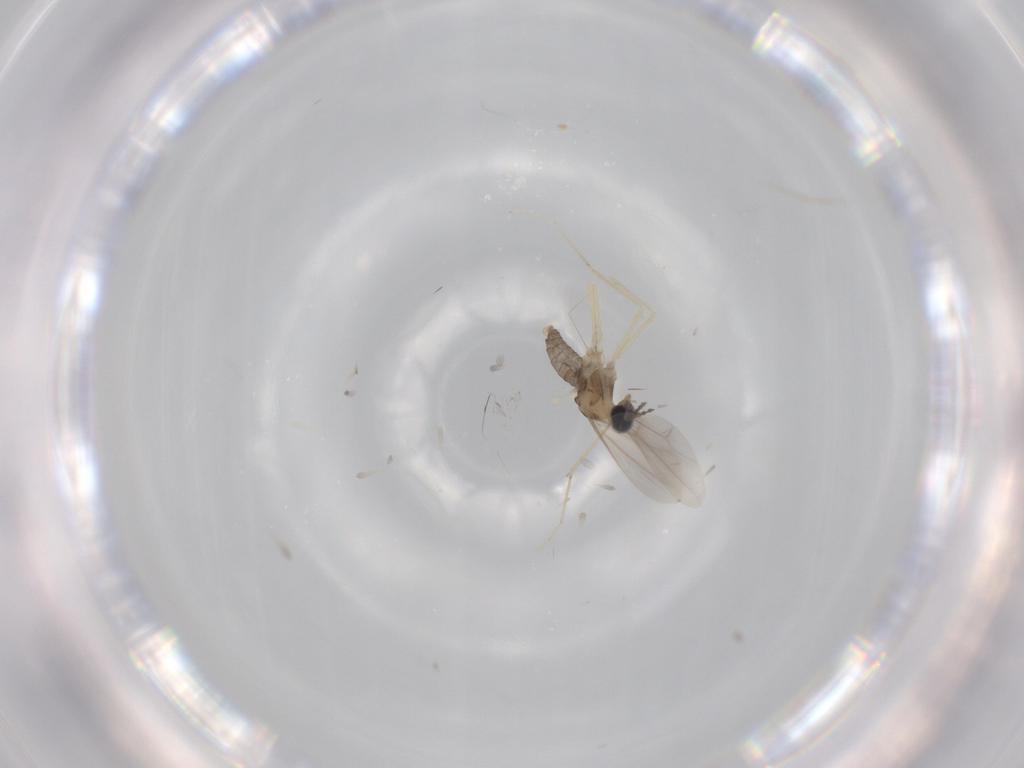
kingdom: Animalia
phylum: Arthropoda
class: Insecta
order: Diptera
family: Cecidomyiidae
